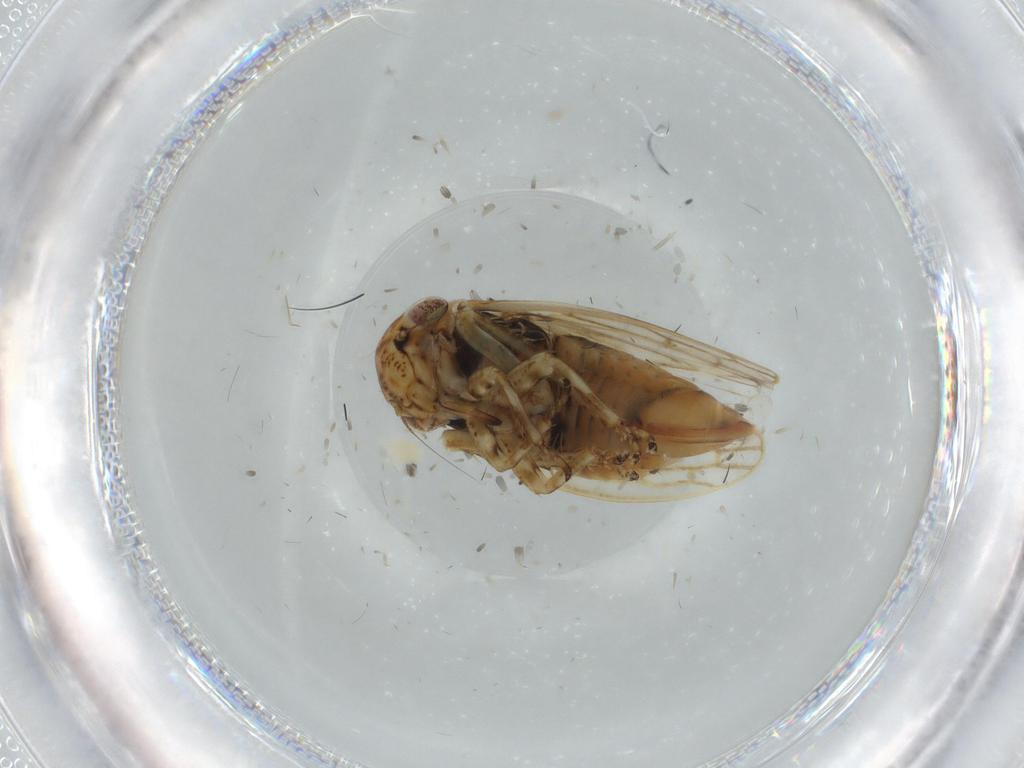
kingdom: Animalia
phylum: Arthropoda
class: Insecta
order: Hemiptera
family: Cicadellidae
